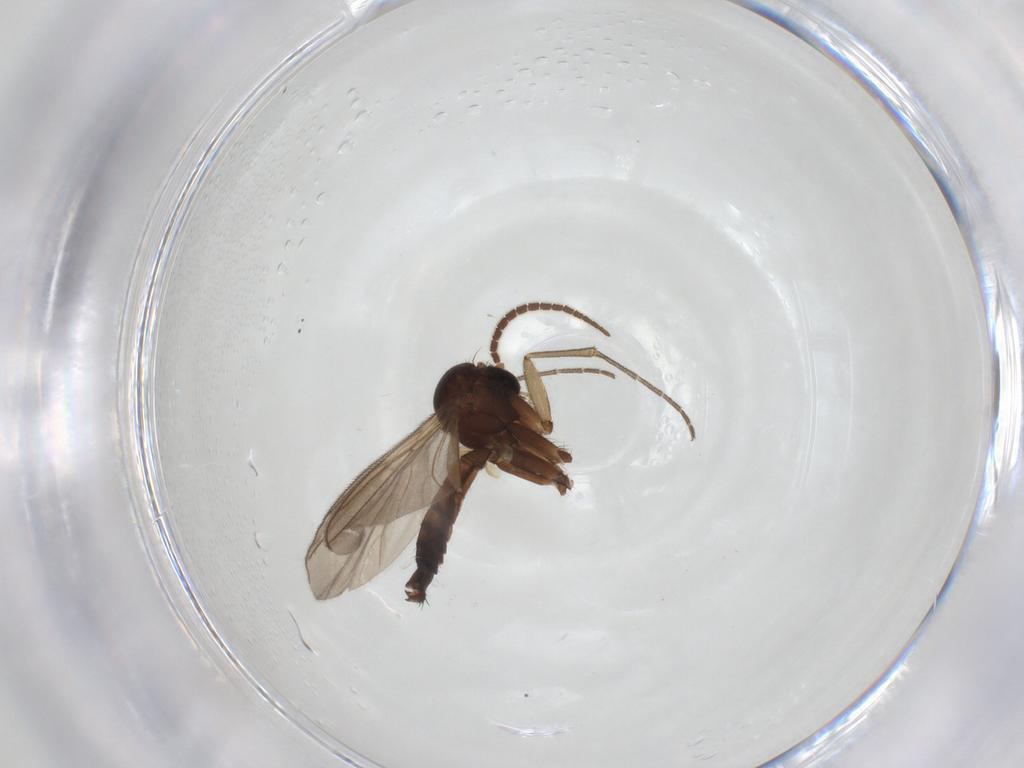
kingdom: Animalia
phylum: Arthropoda
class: Insecta
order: Diptera
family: Mycetophilidae
